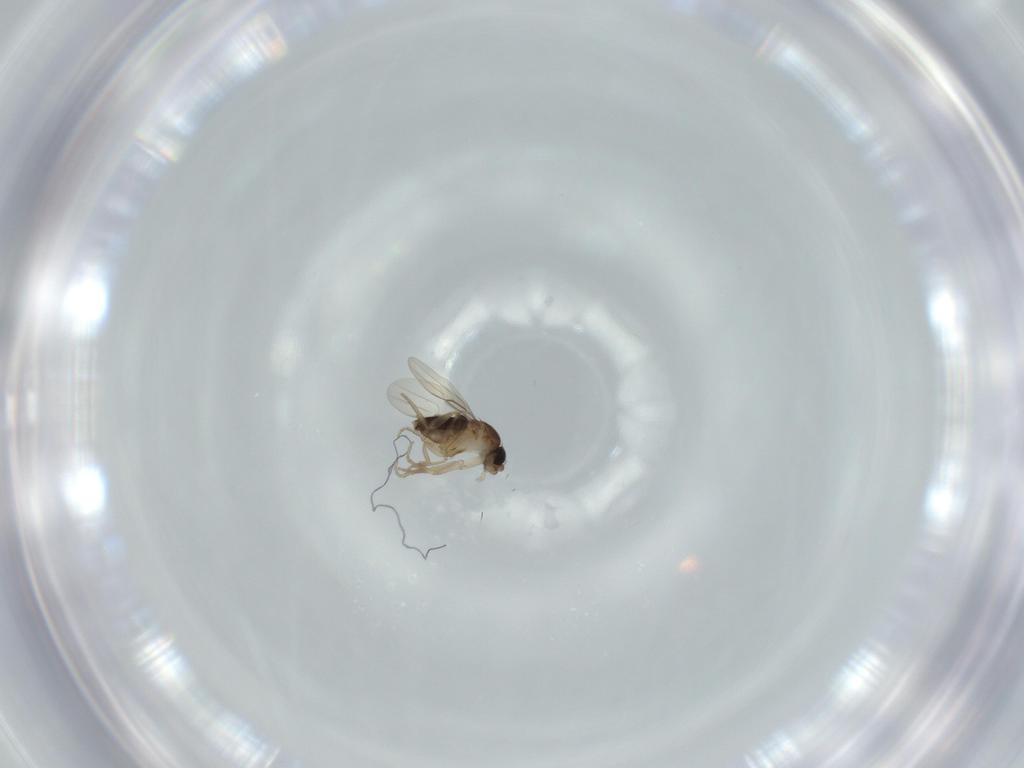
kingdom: Animalia
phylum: Arthropoda
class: Insecta
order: Diptera
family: Phoridae
